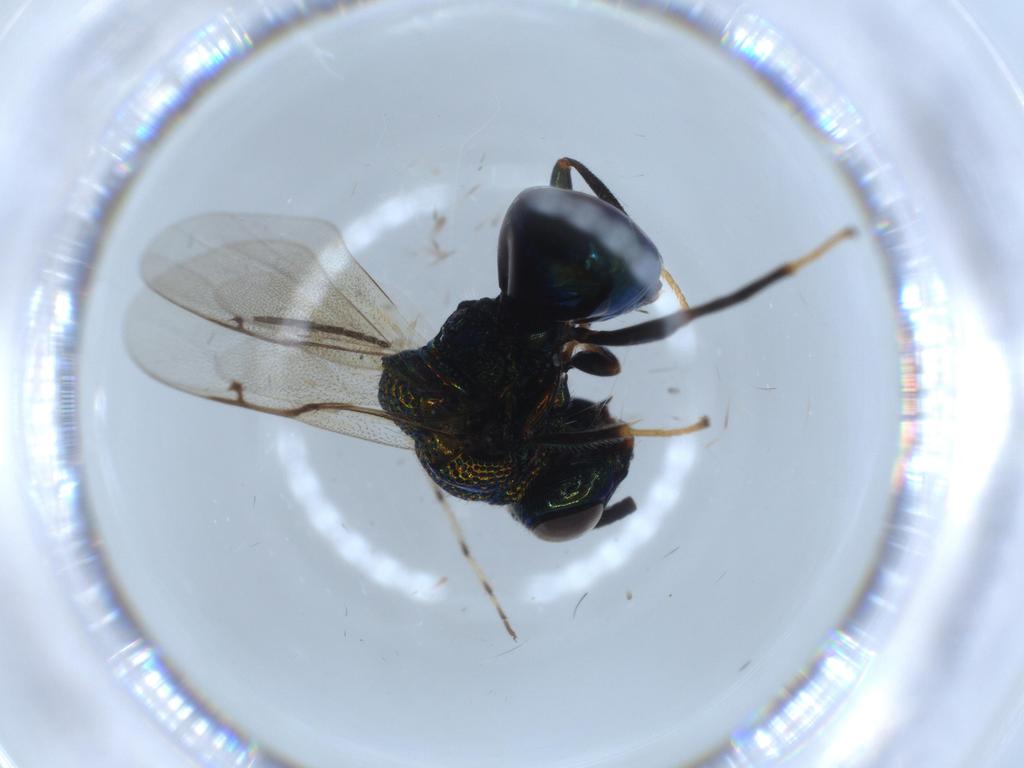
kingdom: Animalia
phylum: Arthropoda
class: Insecta
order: Hymenoptera
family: Perilampidae
